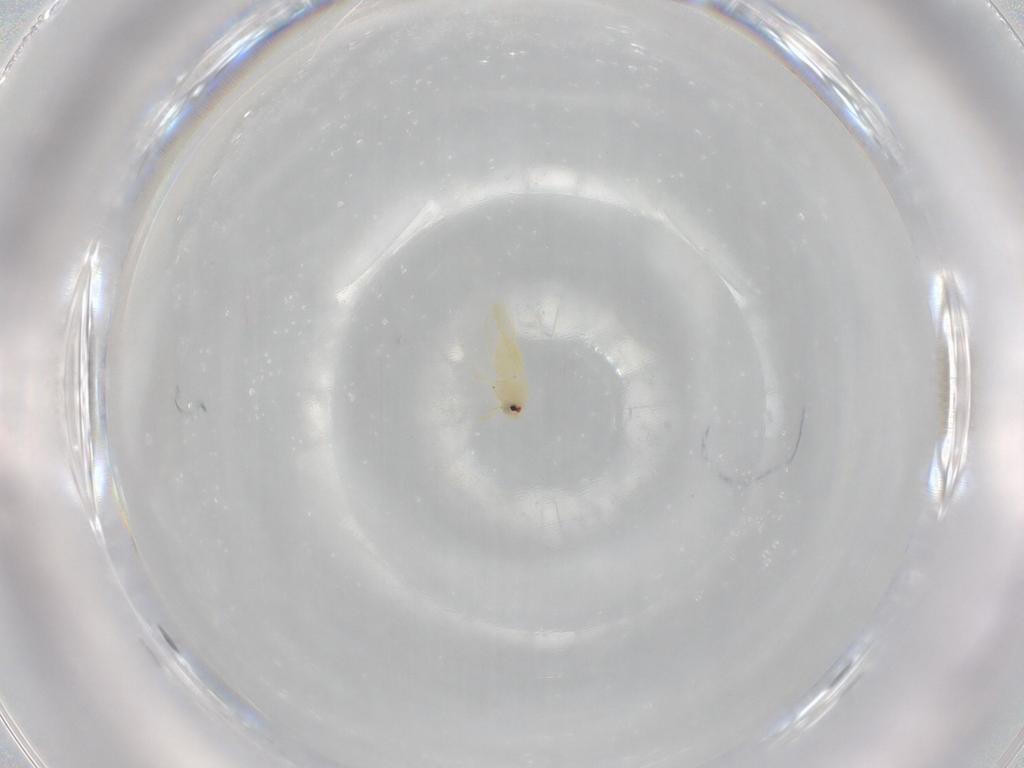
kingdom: Animalia
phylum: Arthropoda
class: Insecta
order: Hemiptera
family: Aleyrodidae
